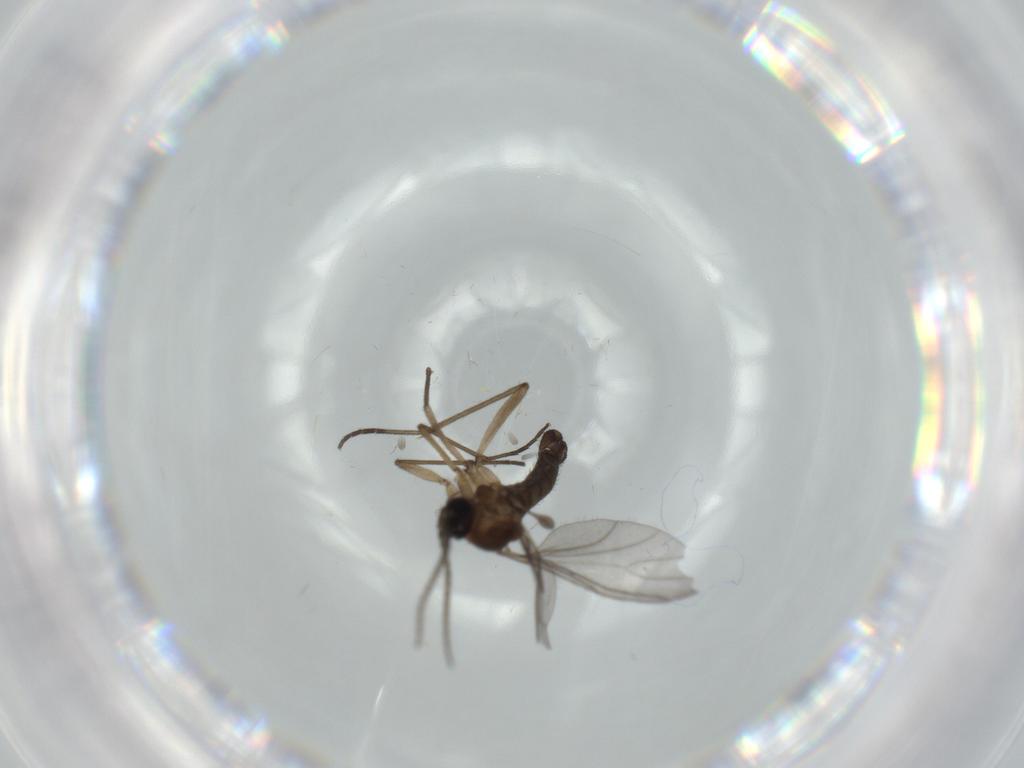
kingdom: Animalia
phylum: Arthropoda
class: Insecta
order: Diptera
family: Sciaridae
